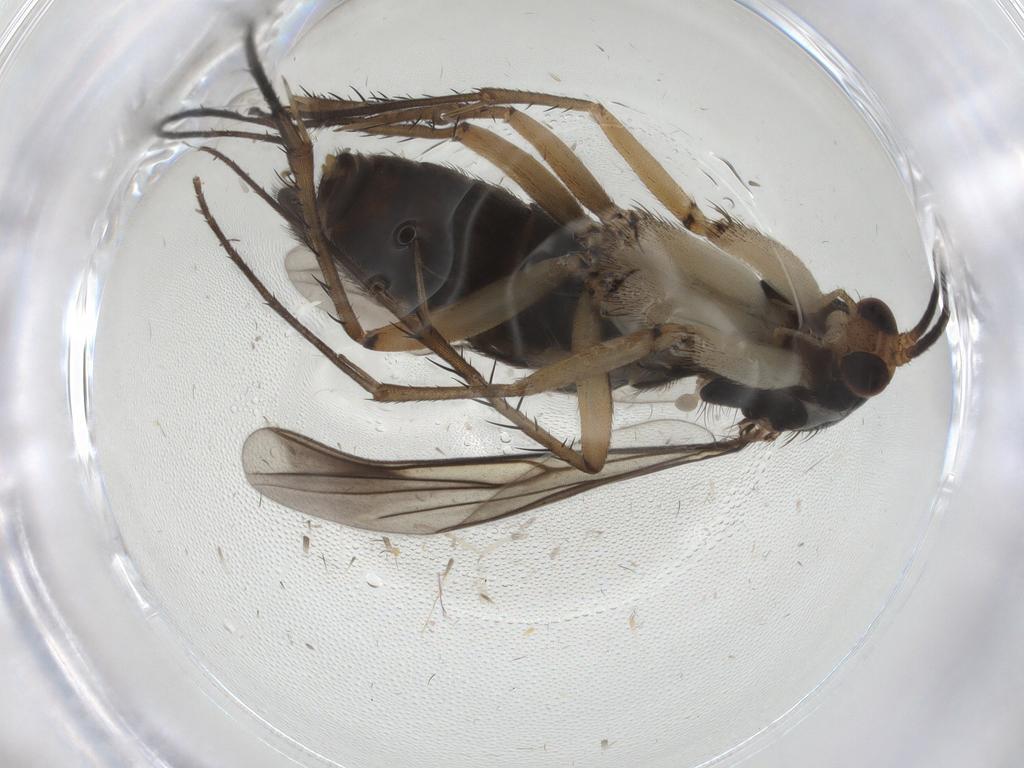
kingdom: Animalia
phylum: Arthropoda
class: Insecta
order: Diptera
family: Mycetophilidae
